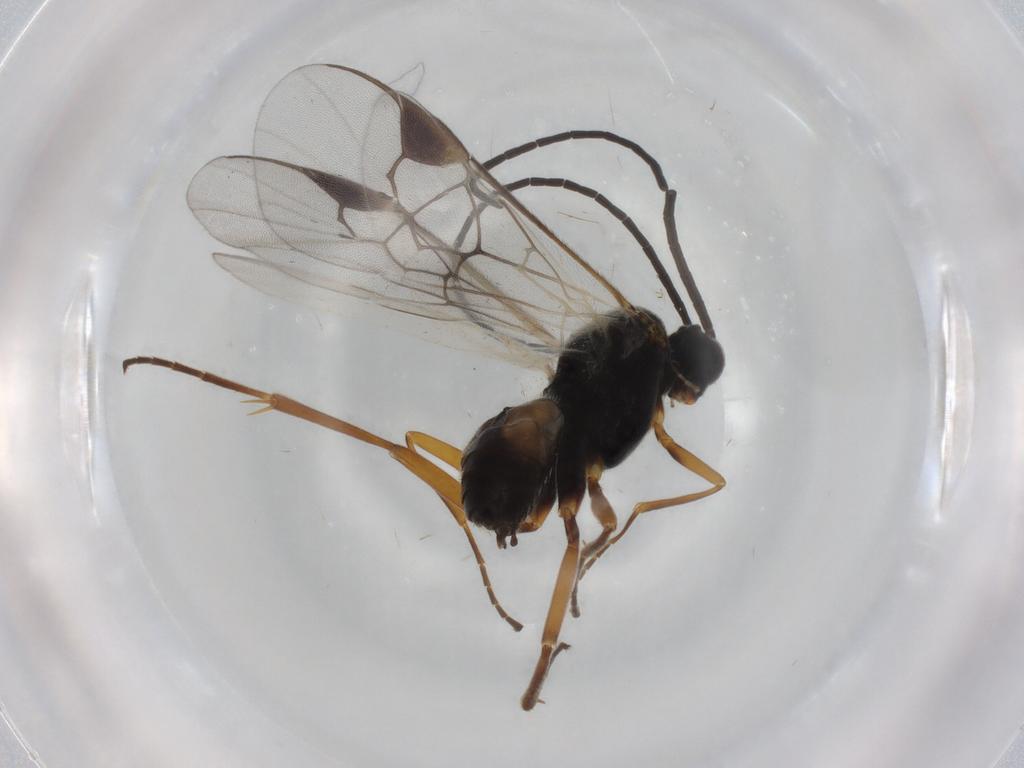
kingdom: Animalia
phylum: Arthropoda
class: Insecta
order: Hymenoptera
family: Braconidae
